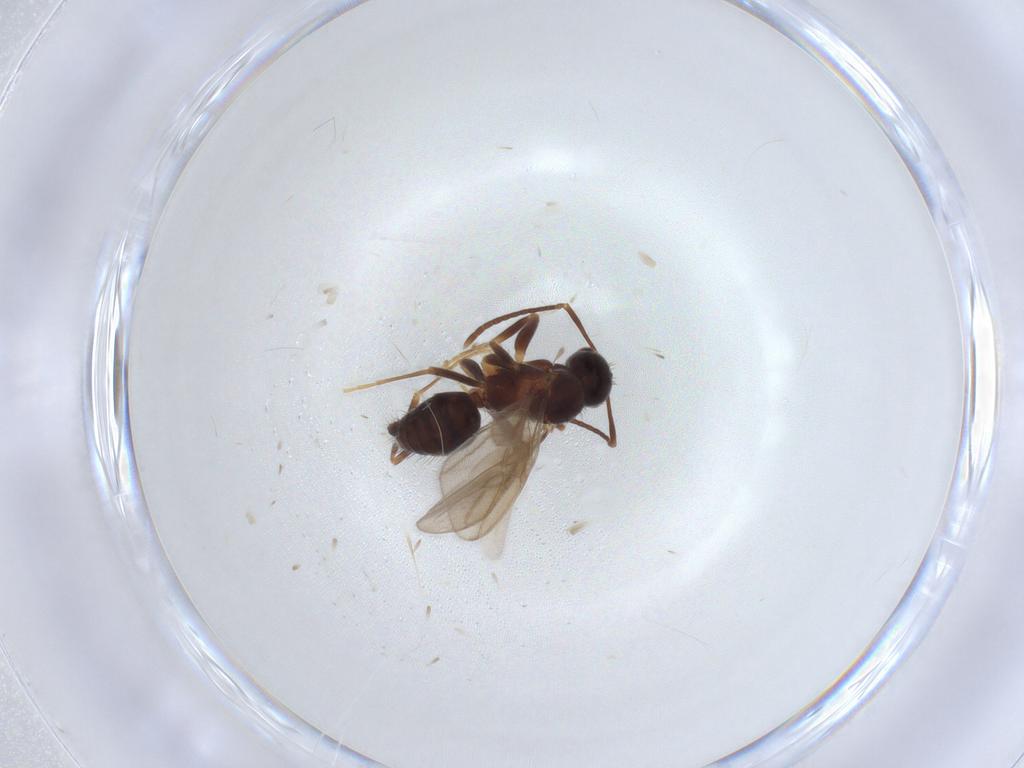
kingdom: Animalia
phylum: Arthropoda
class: Insecta
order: Hymenoptera
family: Formicidae
